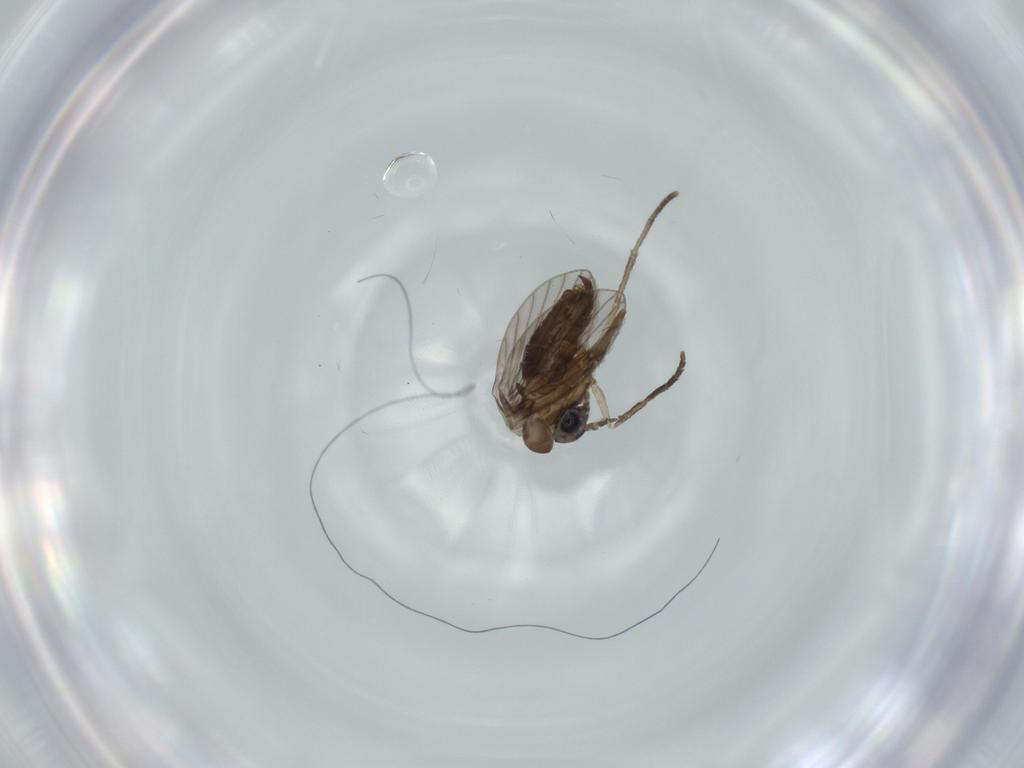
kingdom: Animalia
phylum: Arthropoda
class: Insecta
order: Diptera
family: Psychodidae
